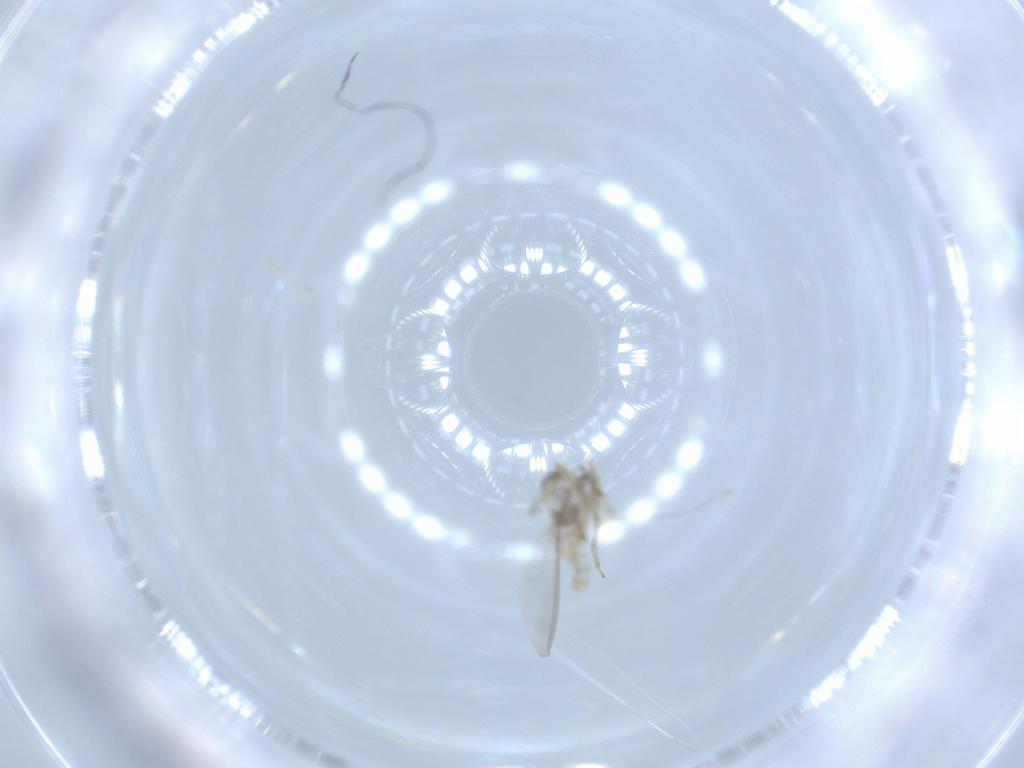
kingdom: Animalia
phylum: Arthropoda
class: Insecta
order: Diptera
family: Cecidomyiidae
